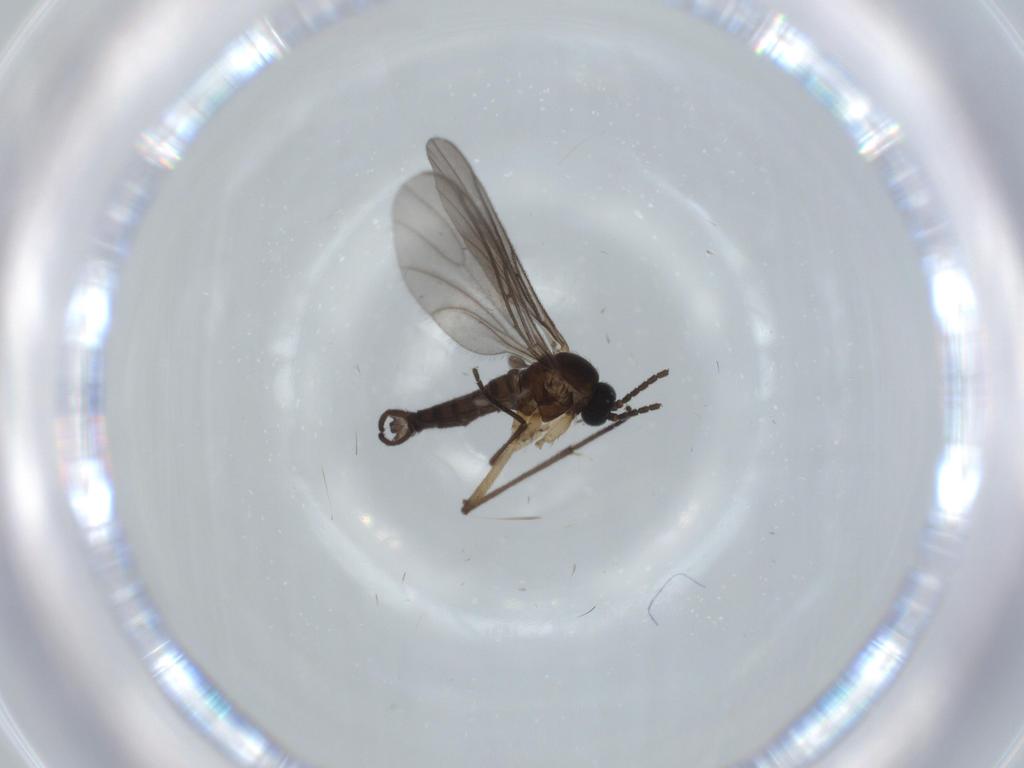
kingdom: Animalia
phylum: Arthropoda
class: Insecta
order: Diptera
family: Sciaridae
